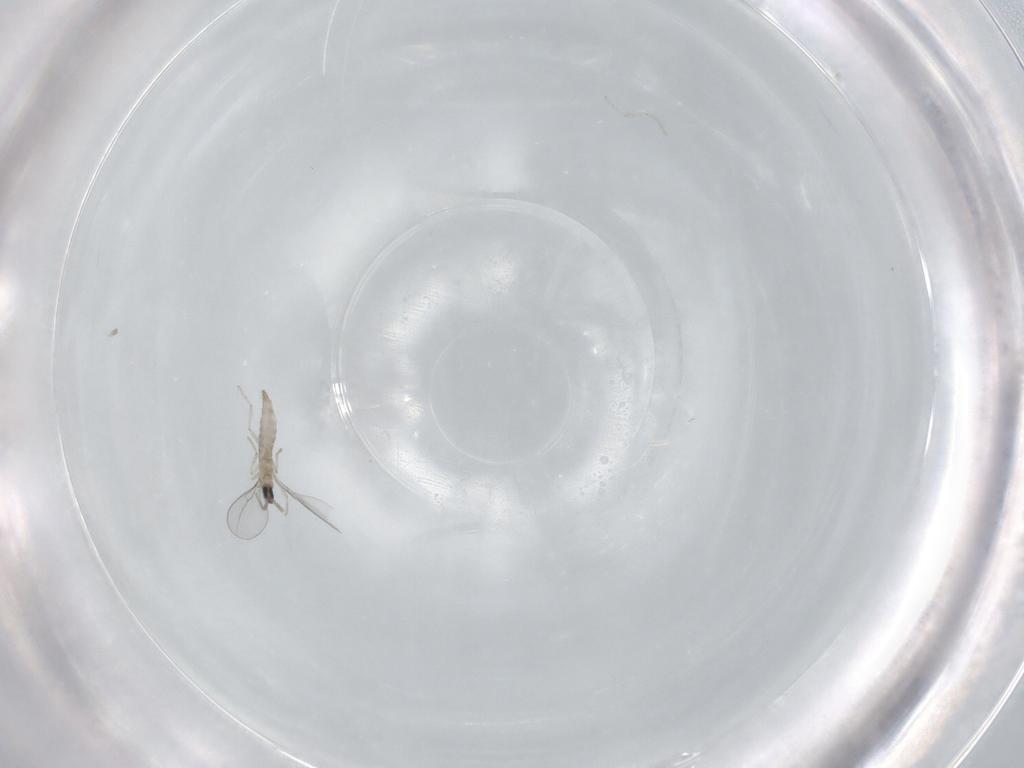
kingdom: Animalia
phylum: Arthropoda
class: Insecta
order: Diptera
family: Cecidomyiidae
